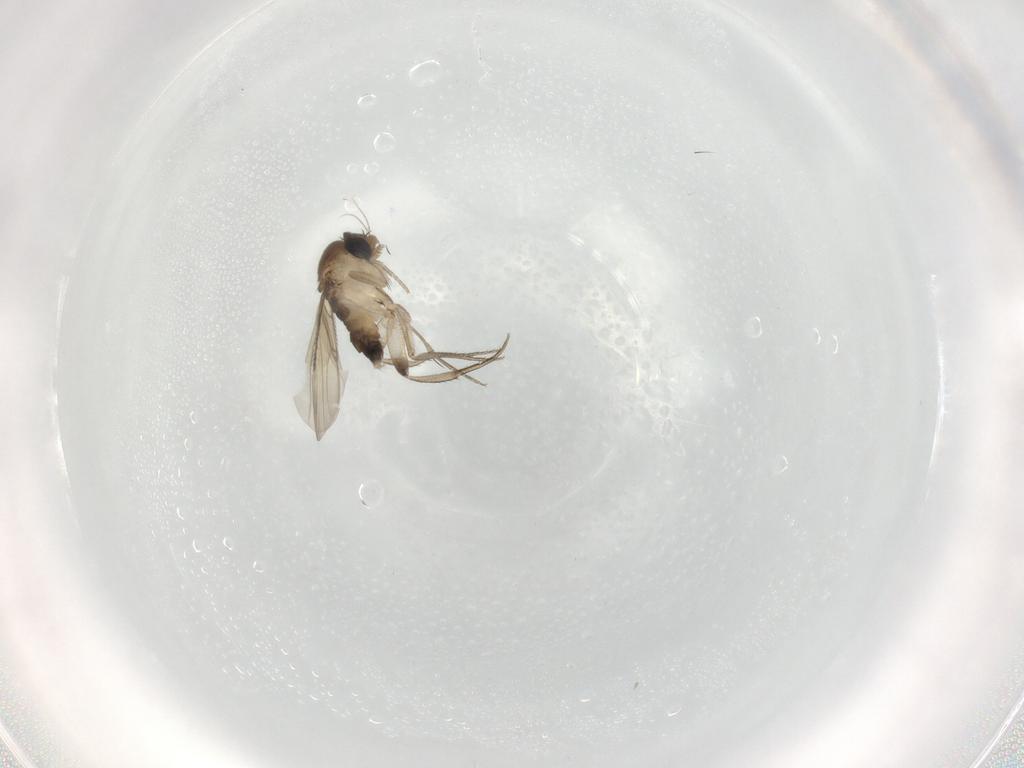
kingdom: Animalia
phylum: Arthropoda
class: Insecta
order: Diptera
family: Phoridae
